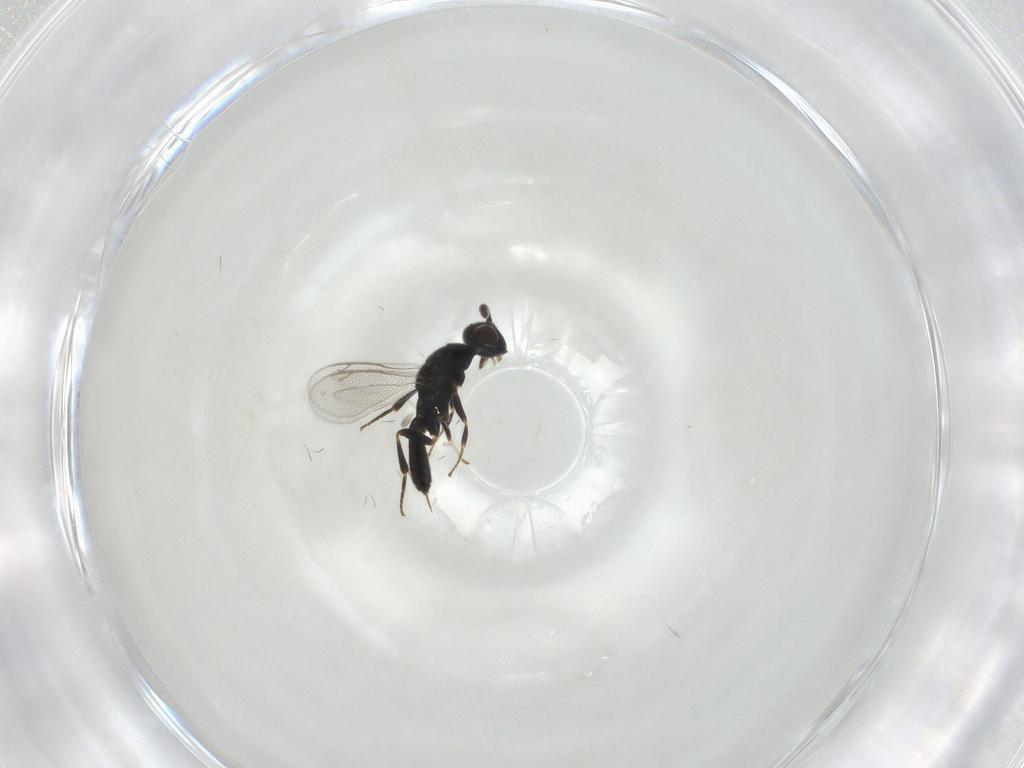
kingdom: Animalia
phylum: Arthropoda
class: Insecta
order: Hymenoptera
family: Cleonyminae
